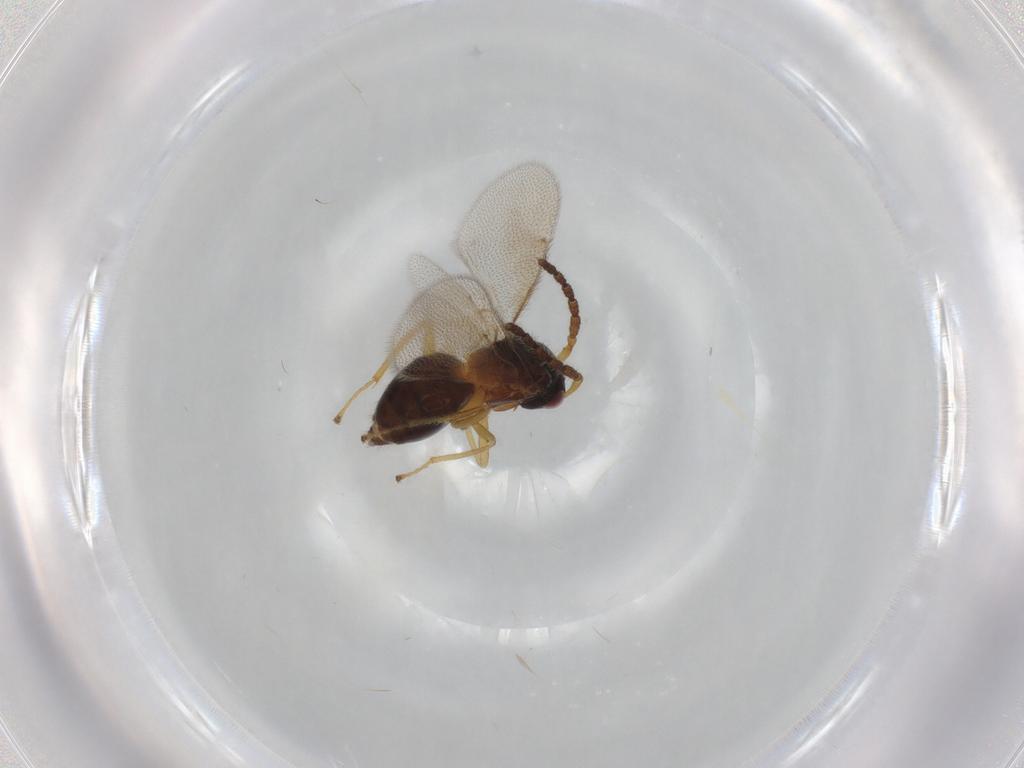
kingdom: Animalia
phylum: Arthropoda
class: Insecta
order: Hymenoptera
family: Eulophidae
